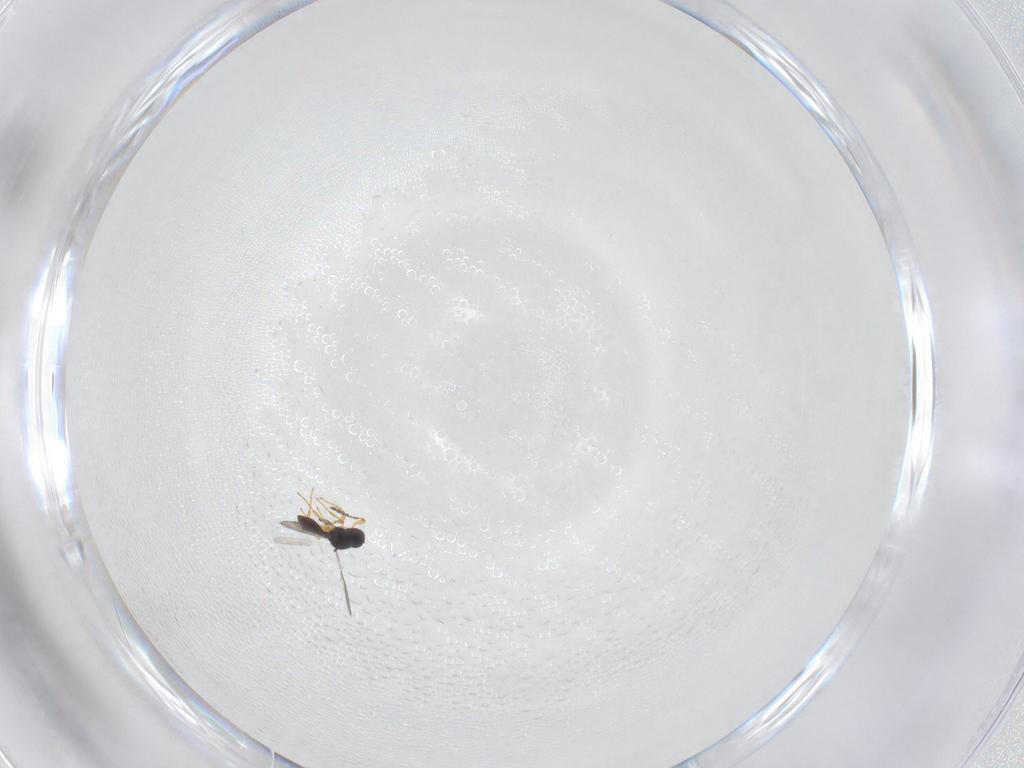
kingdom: Animalia
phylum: Arthropoda
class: Insecta
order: Hymenoptera
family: Platygastridae
